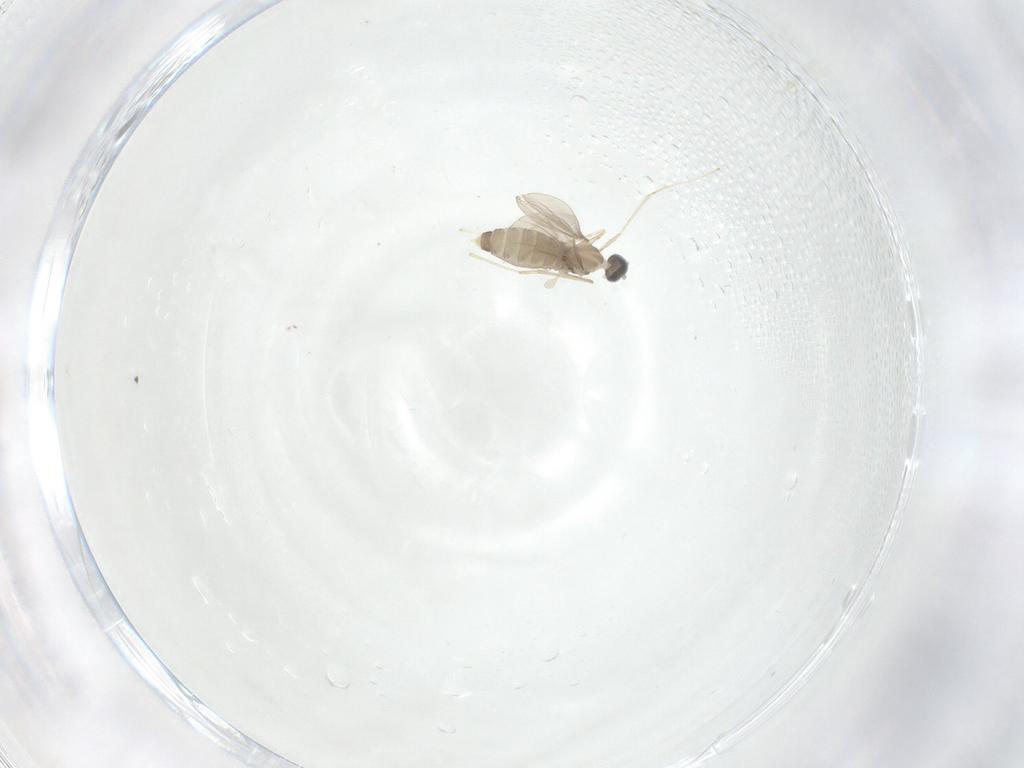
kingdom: Animalia
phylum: Arthropoda
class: Insecta
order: Diptera
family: Cecidomyiidae
